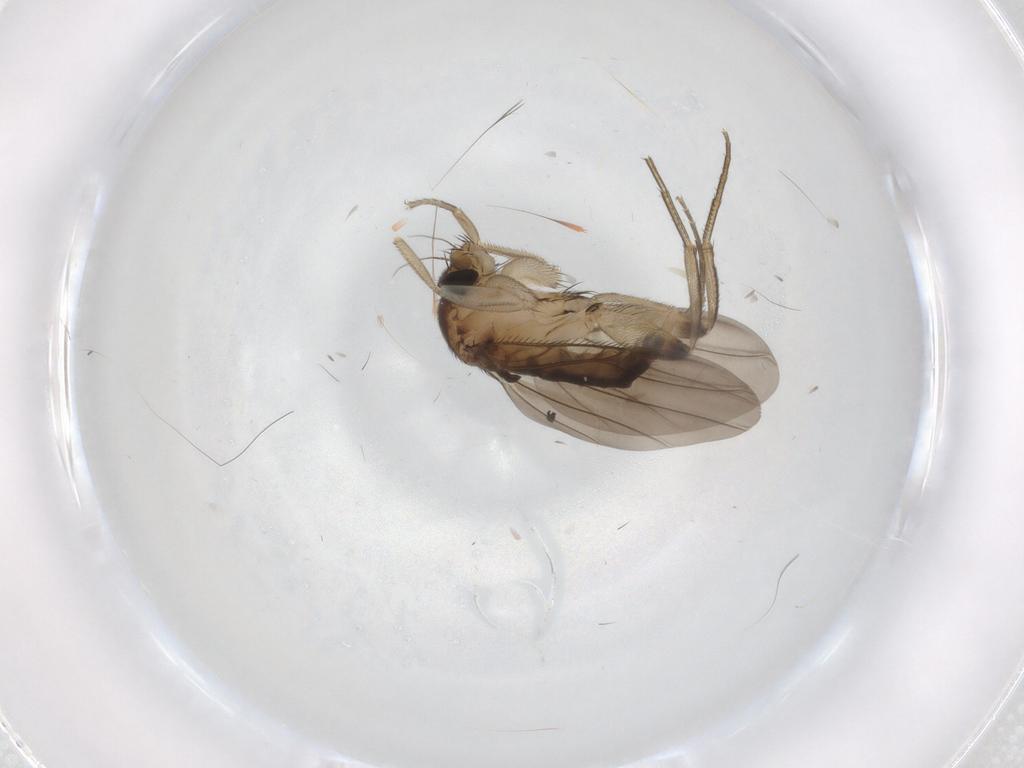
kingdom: Animalia
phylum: Arthropoda
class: Insecta
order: Diptera
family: Phoridae
